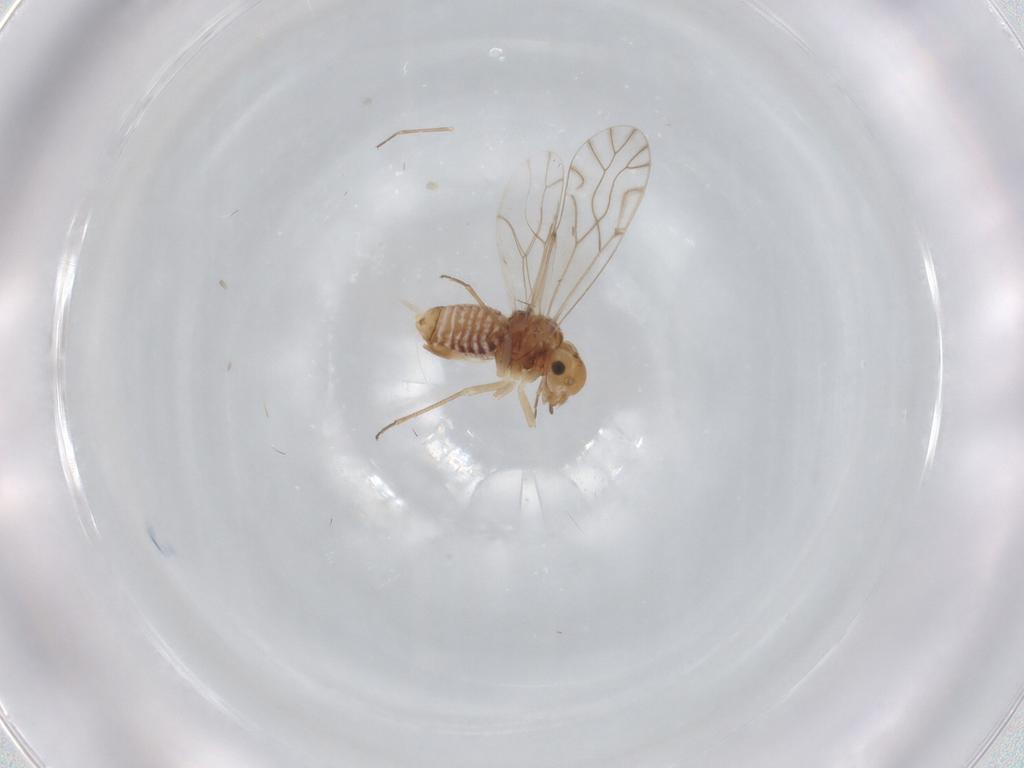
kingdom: Animalia
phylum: Arthropoda
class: Insecta
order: Psocodea
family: Lachesillidae
